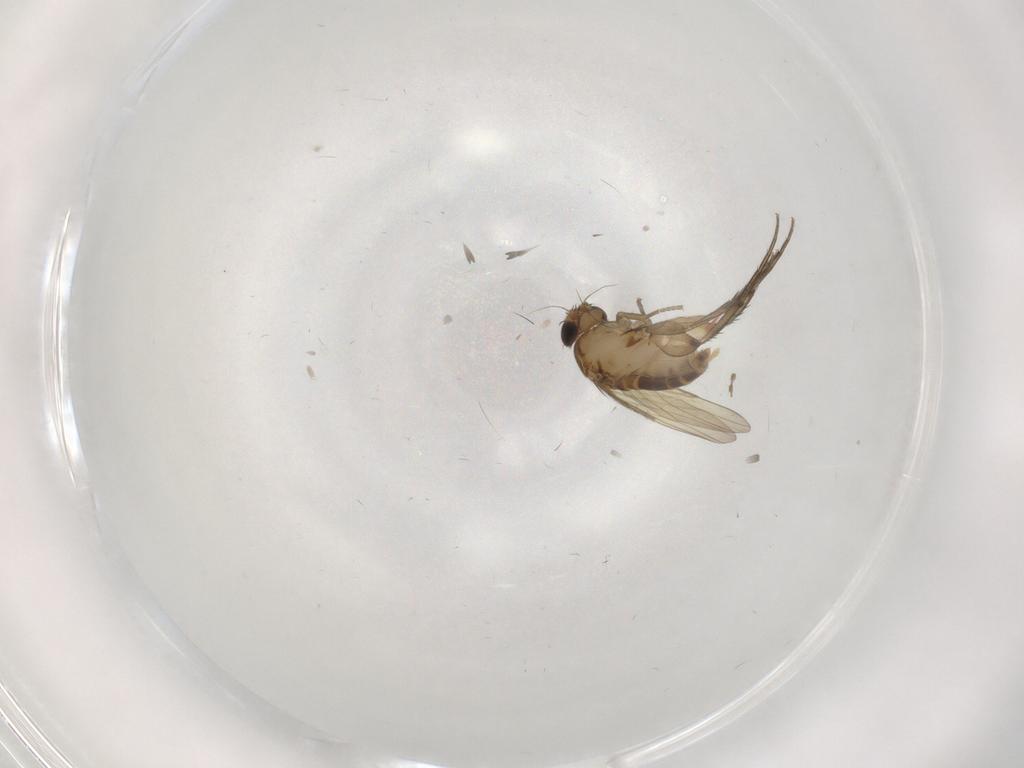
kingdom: Animalia
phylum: Arthropoda
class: Insecta
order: Diptera
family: Sciaridae
